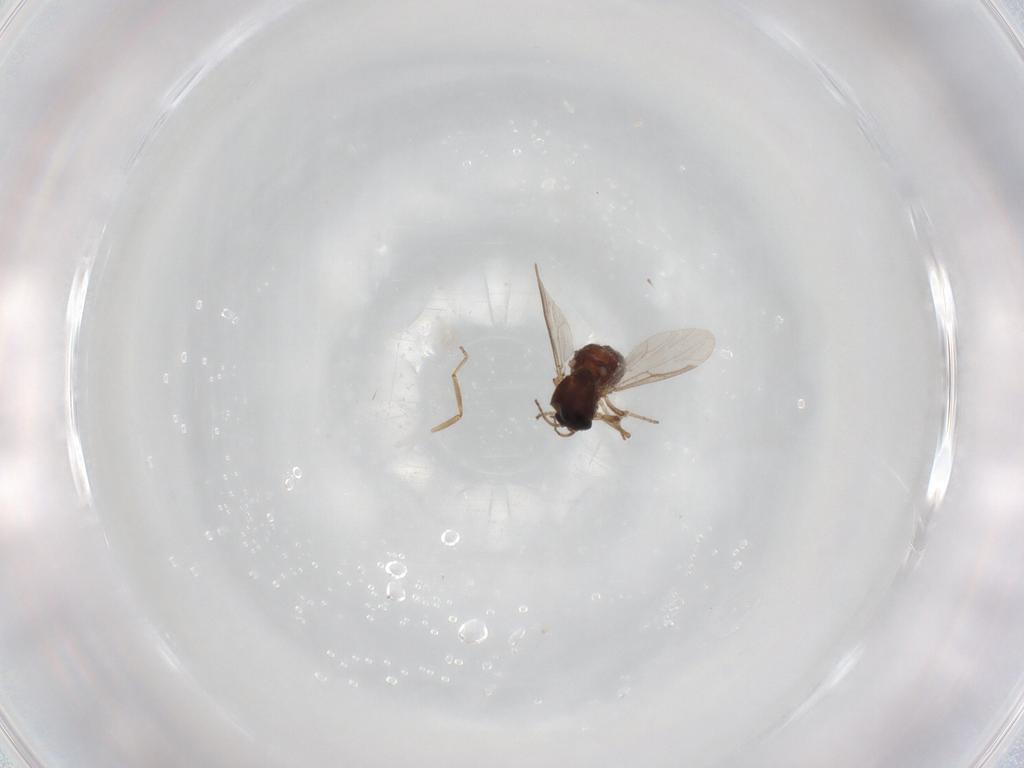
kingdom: Animalia
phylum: Arthropoda
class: Insecta
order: Diptera
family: Ceratopogonidae
